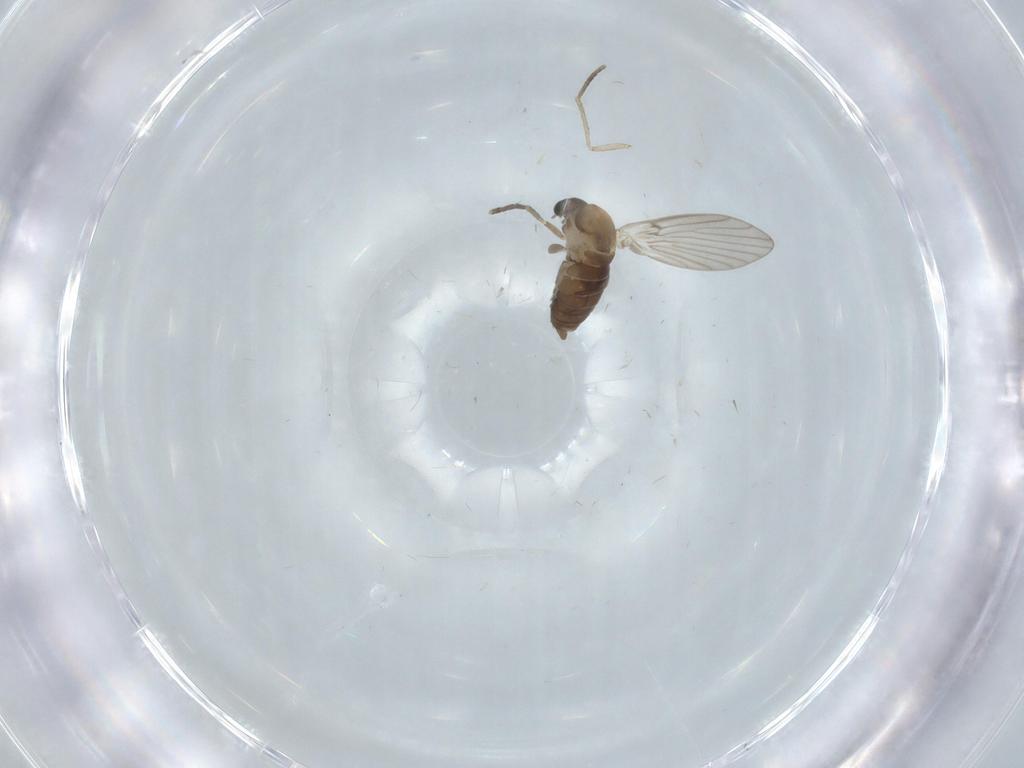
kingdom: Animalia
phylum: Arthropoda
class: Insecta
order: Diptera
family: Psychodidae
